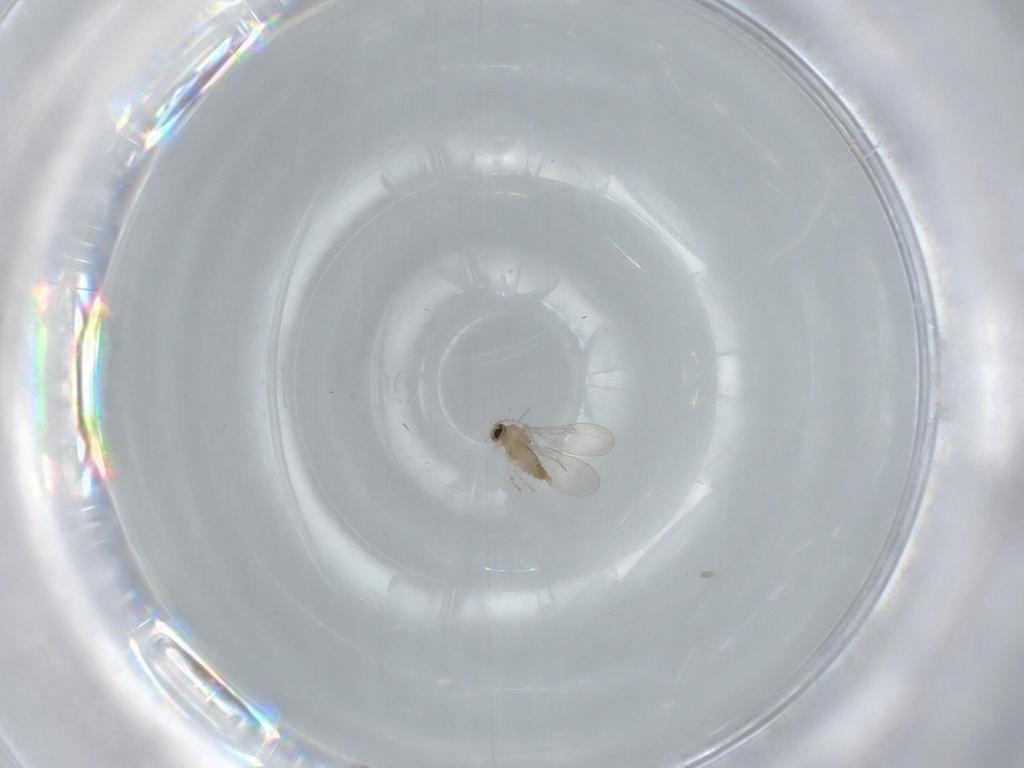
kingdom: Animalia
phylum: Arthropoda
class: Insecta
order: Diptera
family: Cecidomyiidae
